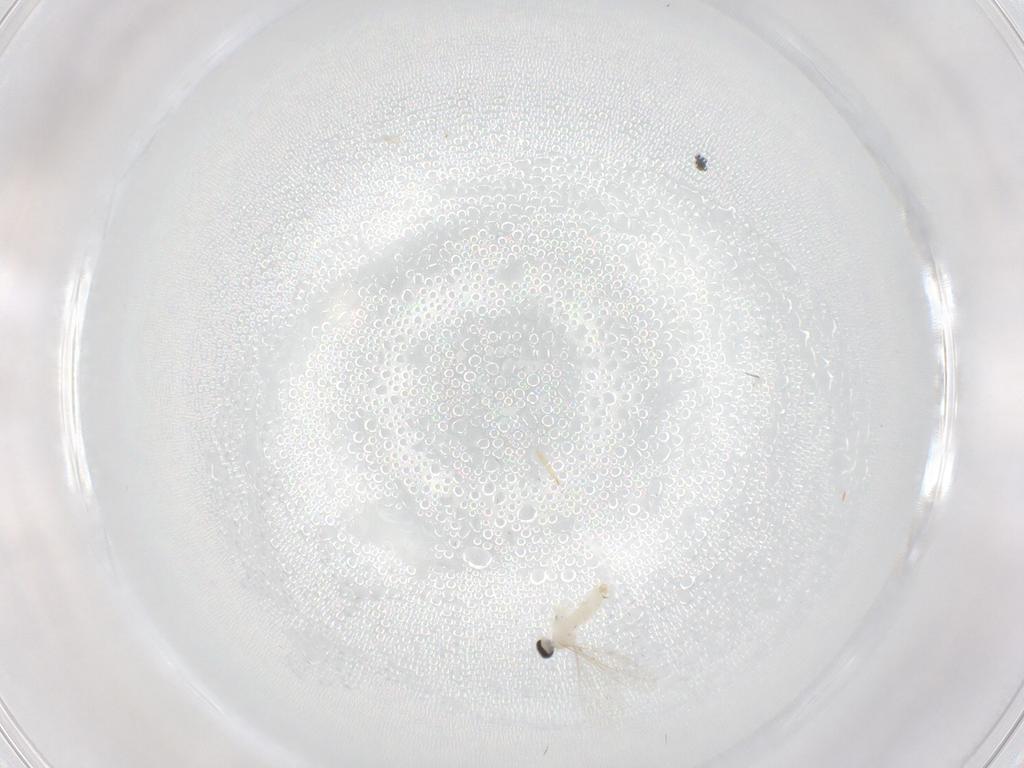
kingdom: Animalia
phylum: Arthropoda
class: Insecta
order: Diptera
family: Cecidomyiidae
